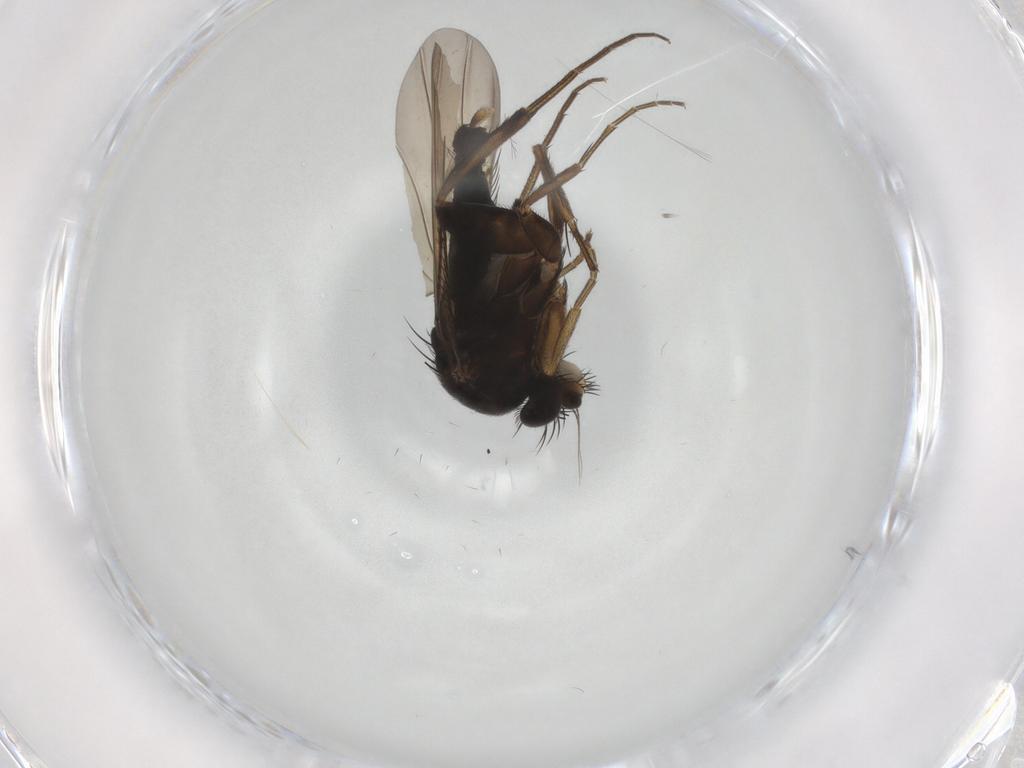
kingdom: Animalia
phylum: Arthropoda
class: Insecta
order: Diptera
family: Phoridae
